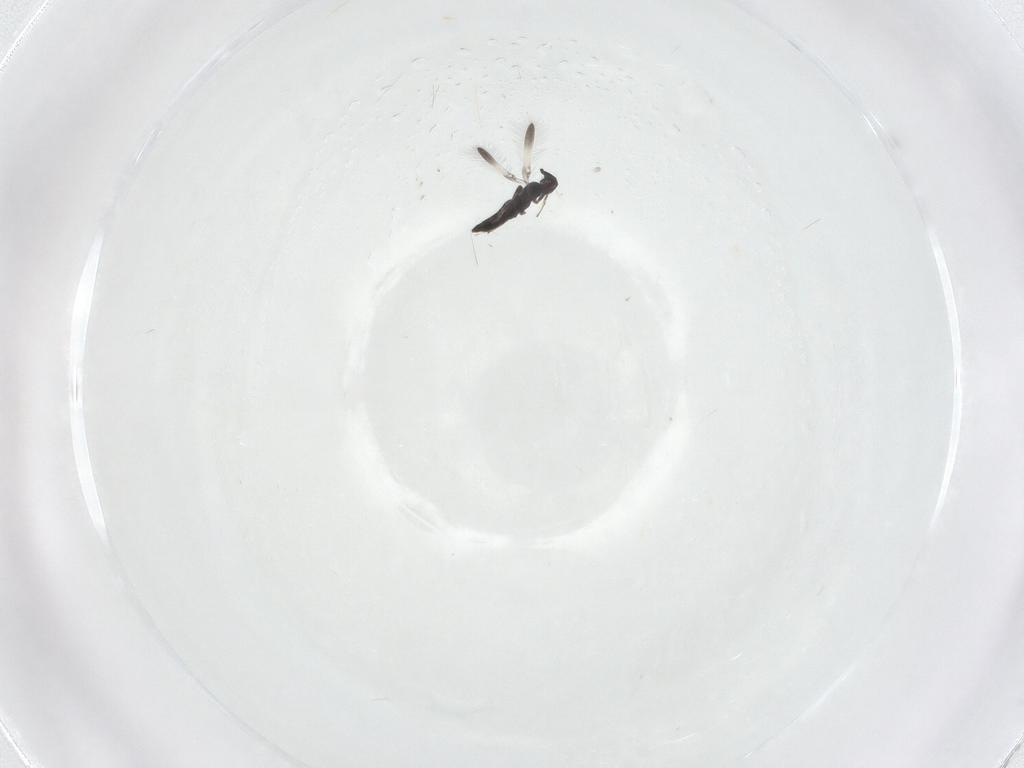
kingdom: Animalia
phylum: Arthropoda
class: Insecta
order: Hymenoptera
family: Mymaridae
